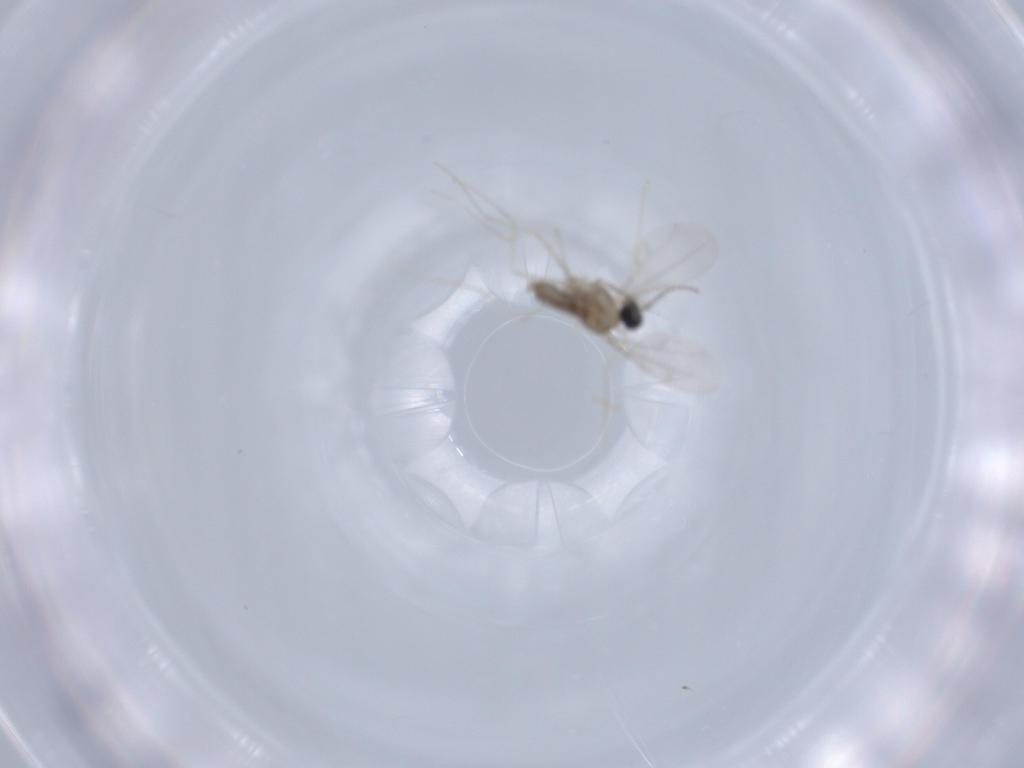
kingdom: Animalia
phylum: Arthropoda
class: Insecta
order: Diptera
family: Cecidomyiidae
